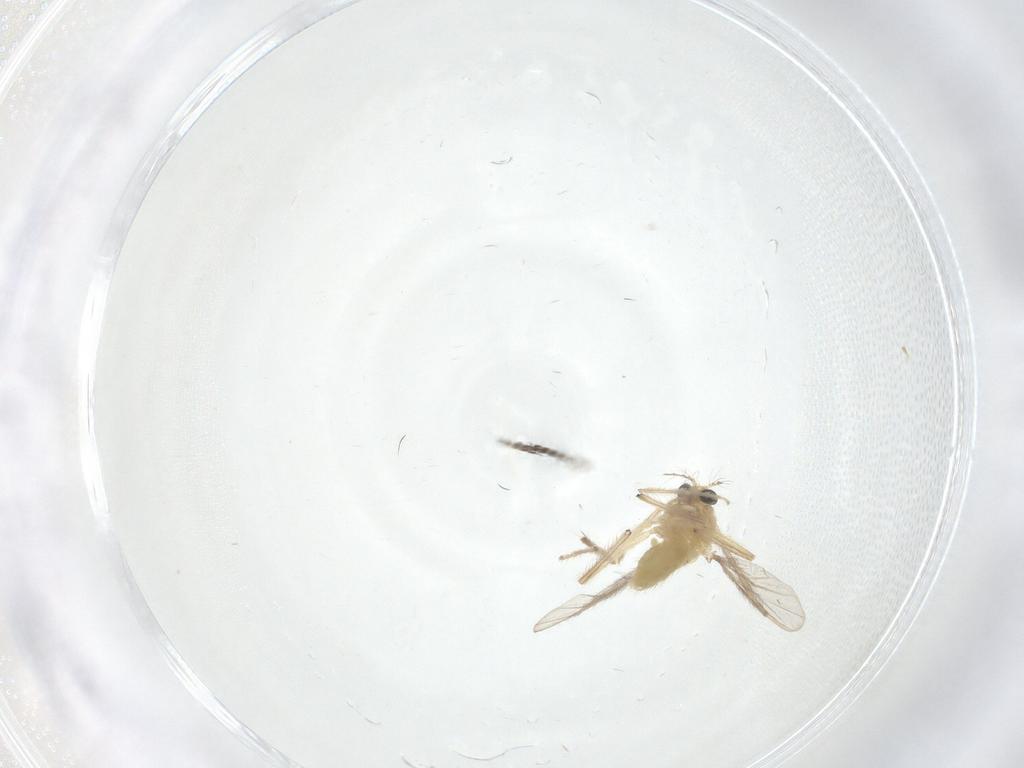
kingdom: Animalia
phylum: Arthropoda
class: Insecta
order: Diptera
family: Chironomidae
